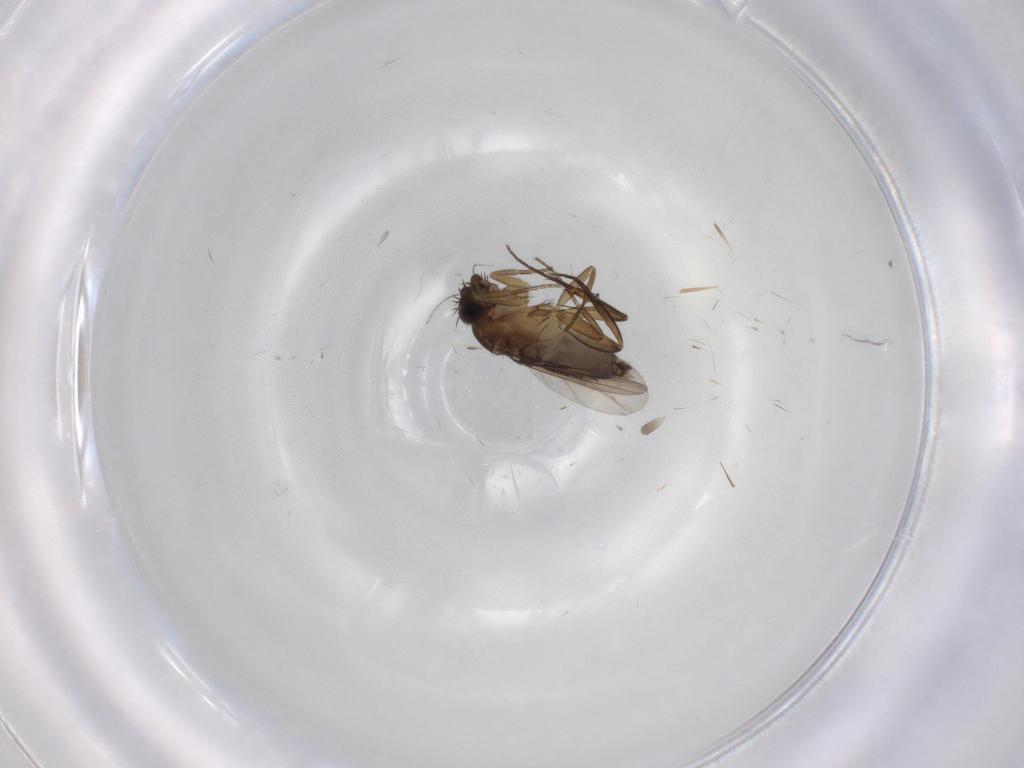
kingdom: Animalia
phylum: Arthropoda
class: Insecta
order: Diptera
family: Phoridae
